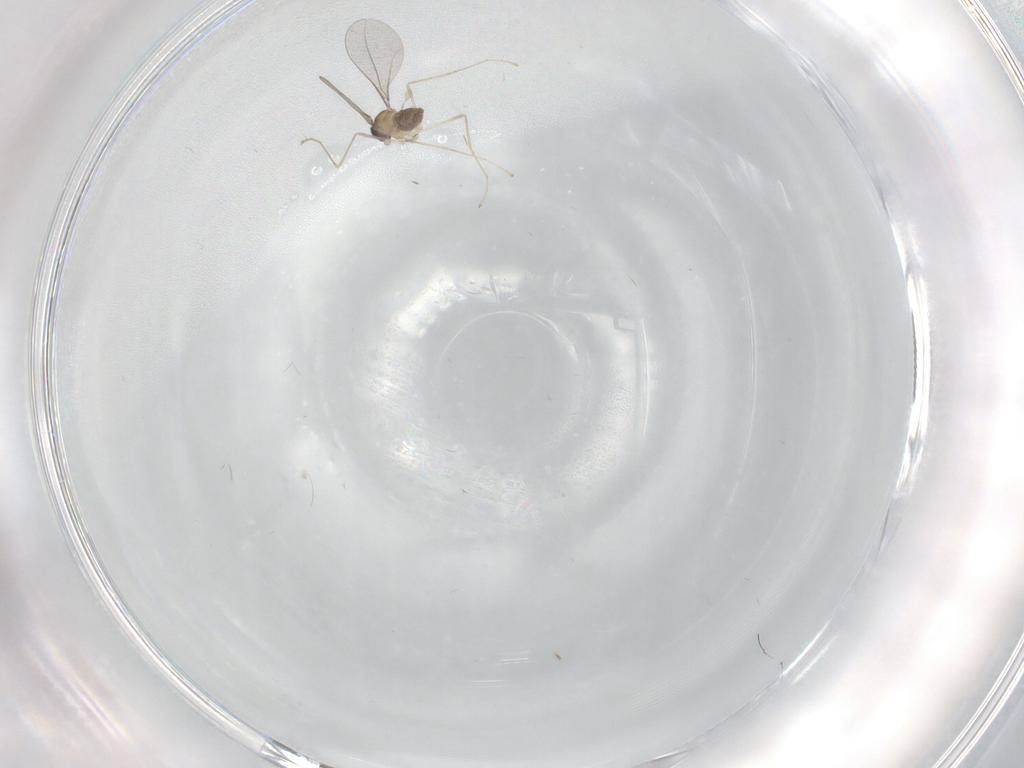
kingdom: Animalia
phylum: Arthropoda
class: Insecta
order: Diptera
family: Cecidomyiidae
